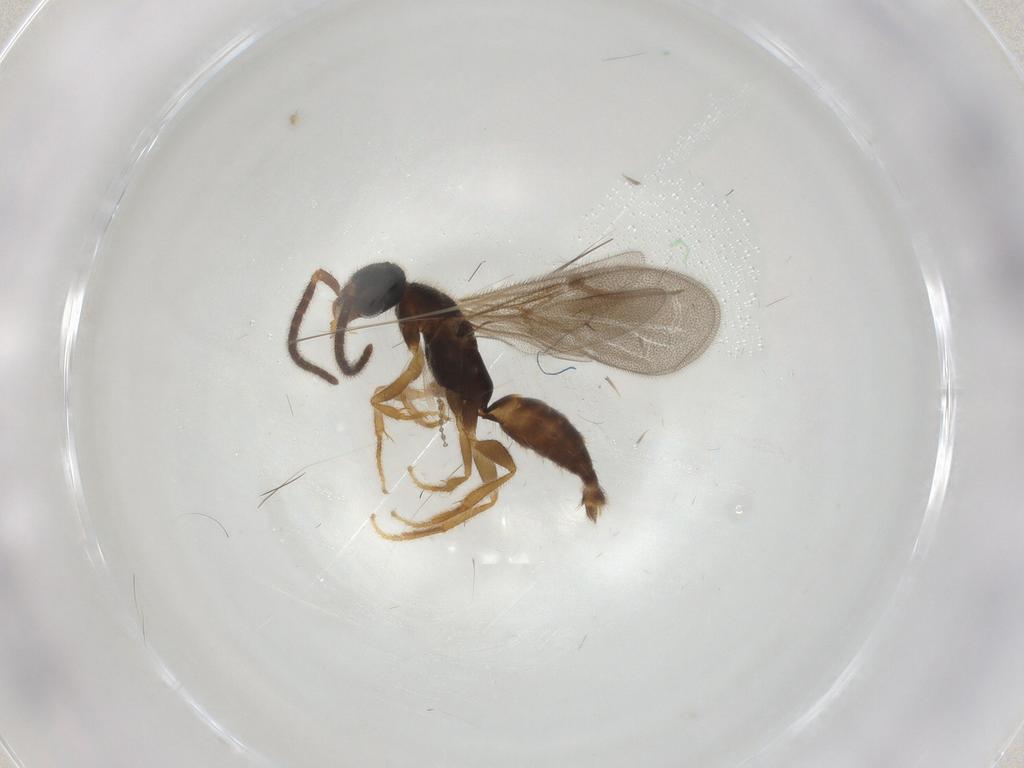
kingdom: Animalia
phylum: Arthropoda
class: Insecta
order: Hymenoptera
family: Bethylidae
